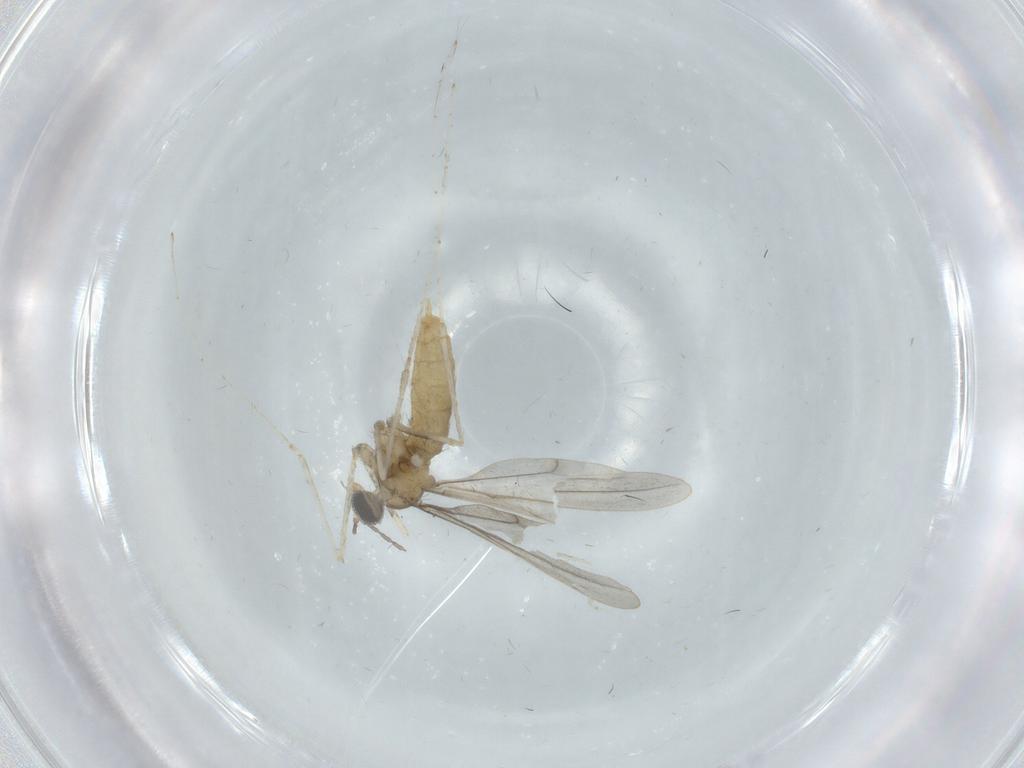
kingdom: Animalia
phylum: Arthropoda
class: Insecta
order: Diptera
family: Cecidomyiidae
